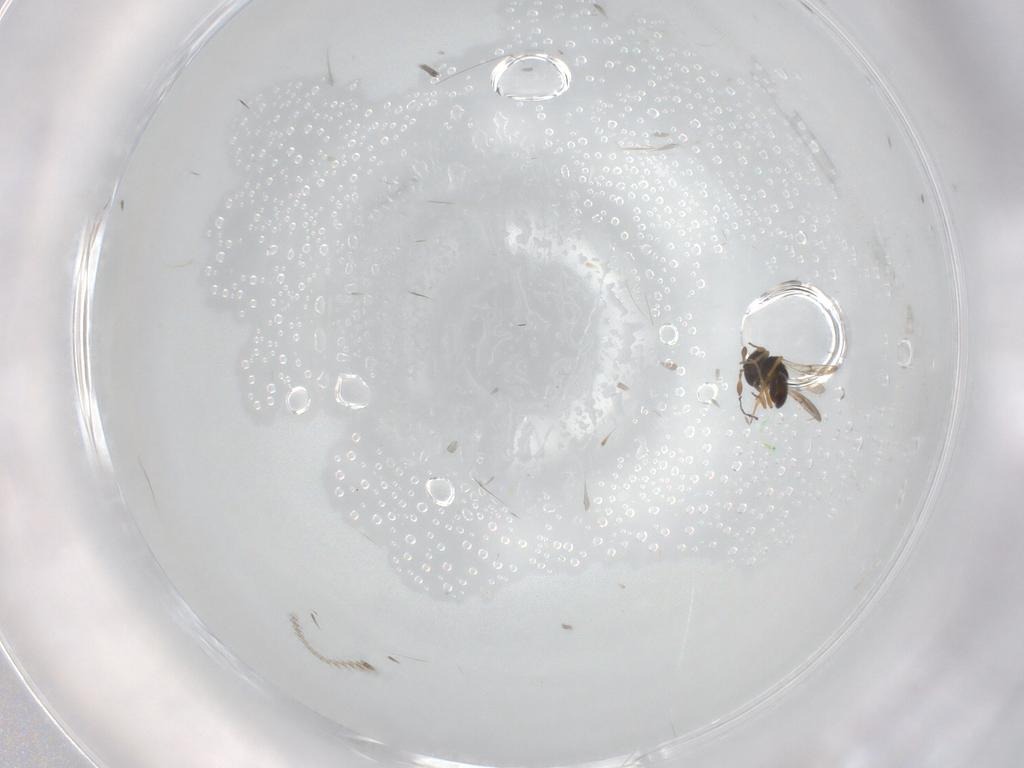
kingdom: Animalia
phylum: Arthropoda
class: Insecta
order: Hymenoptera
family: Scelionidae
